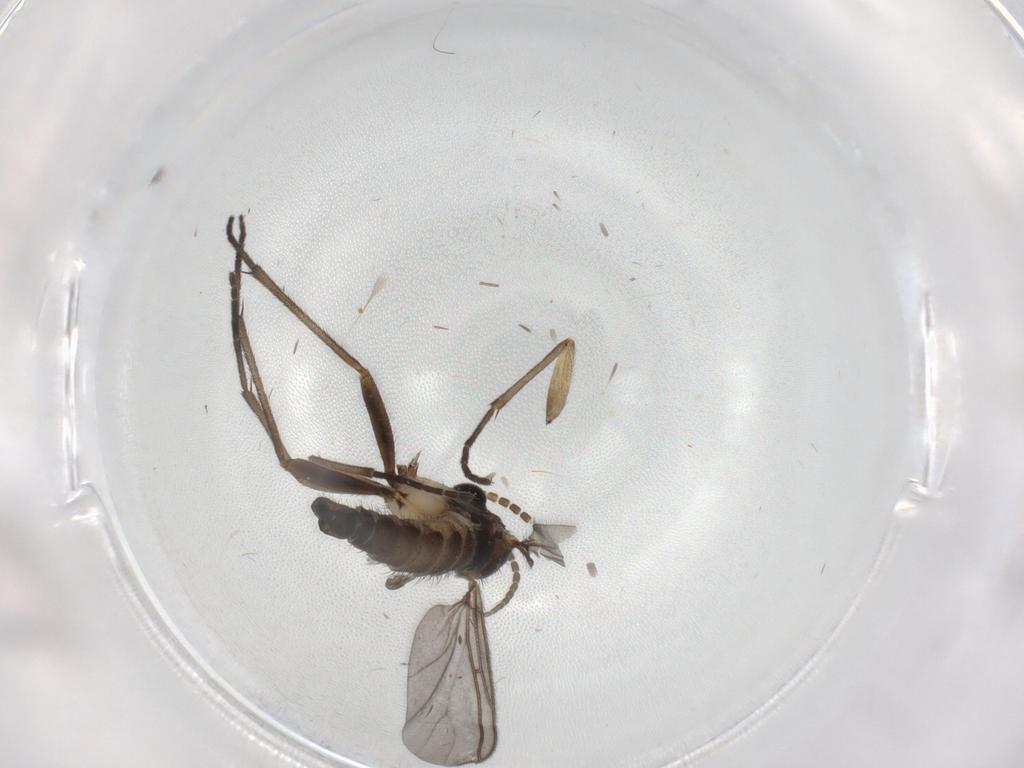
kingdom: Animalia
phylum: Arthropoda
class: Insecta
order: Diptera
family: Sciaridae
